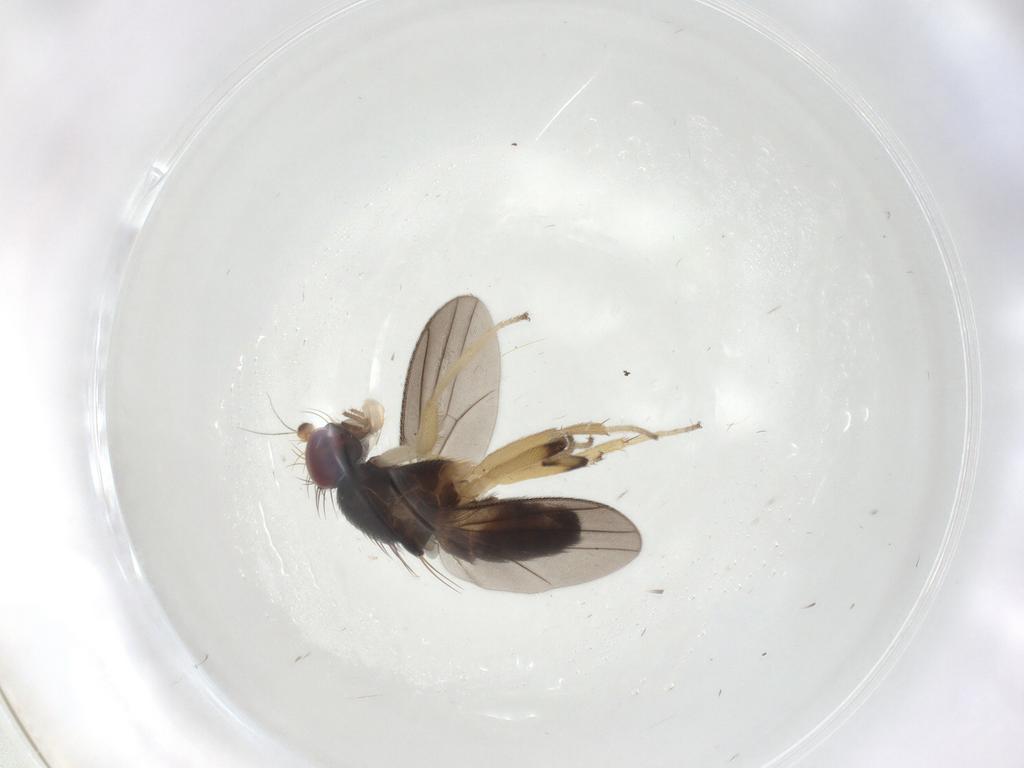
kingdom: Animalia
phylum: Arthropoda
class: Insecta
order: Diptera
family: Clusiidae
